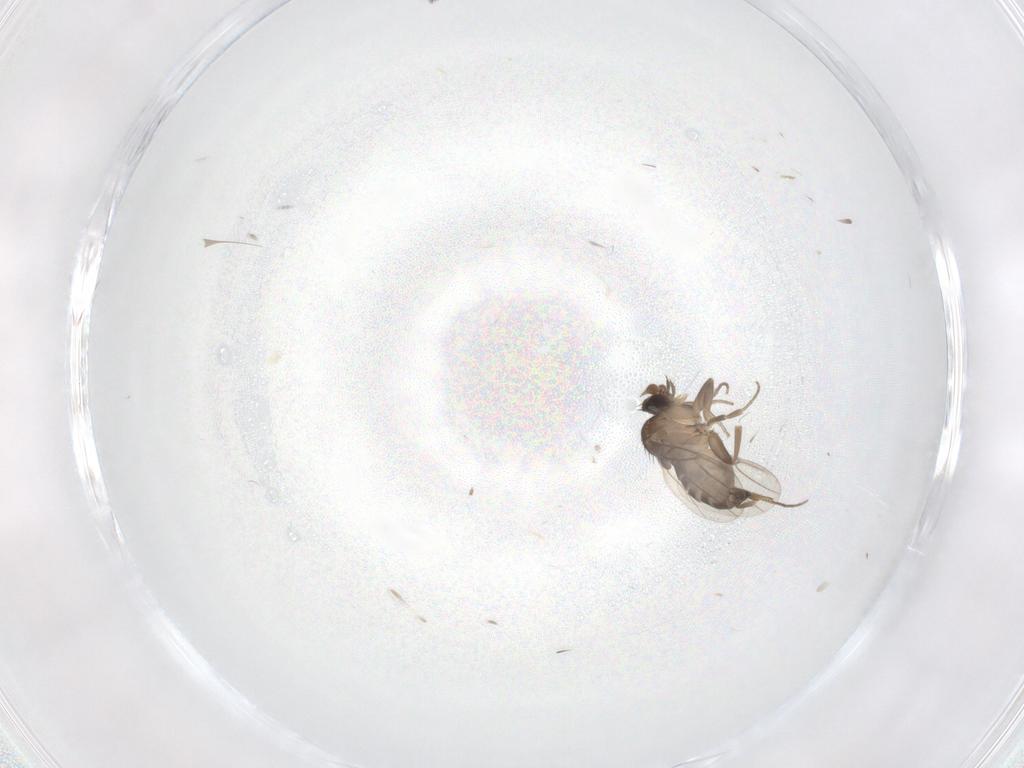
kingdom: Animalia
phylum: Arthropoda
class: Insecta
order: Diptera
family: Phoridae
